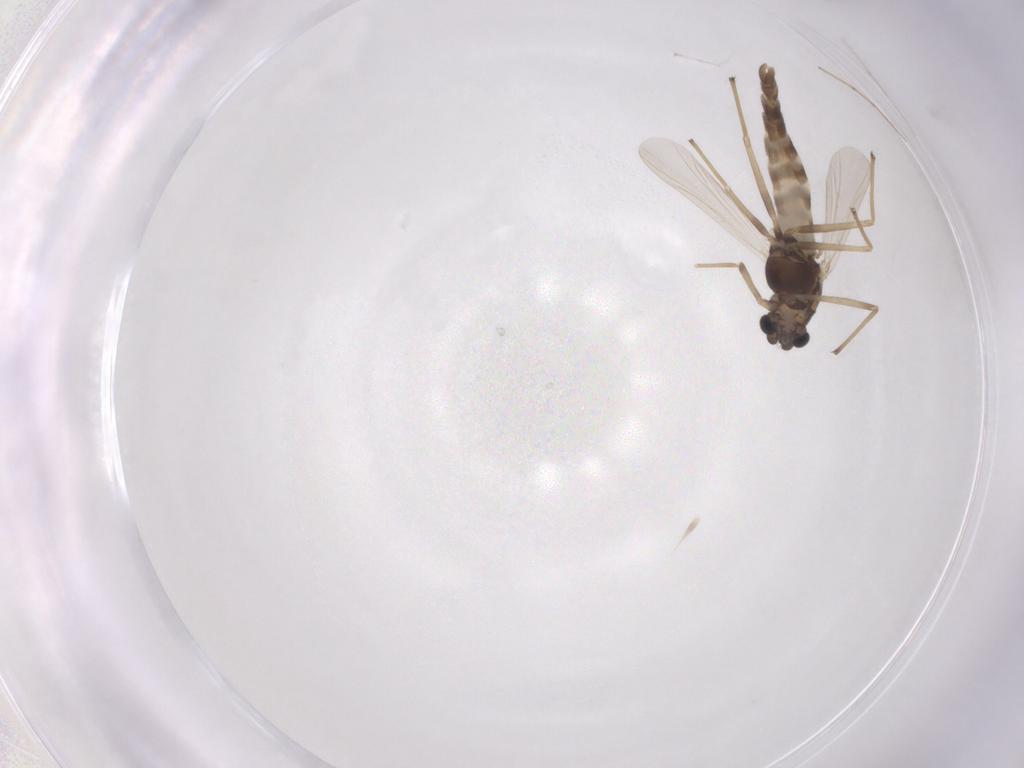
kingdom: Animalia
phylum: Arthropoda
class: Insecta
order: Diptera
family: Chironomidae
